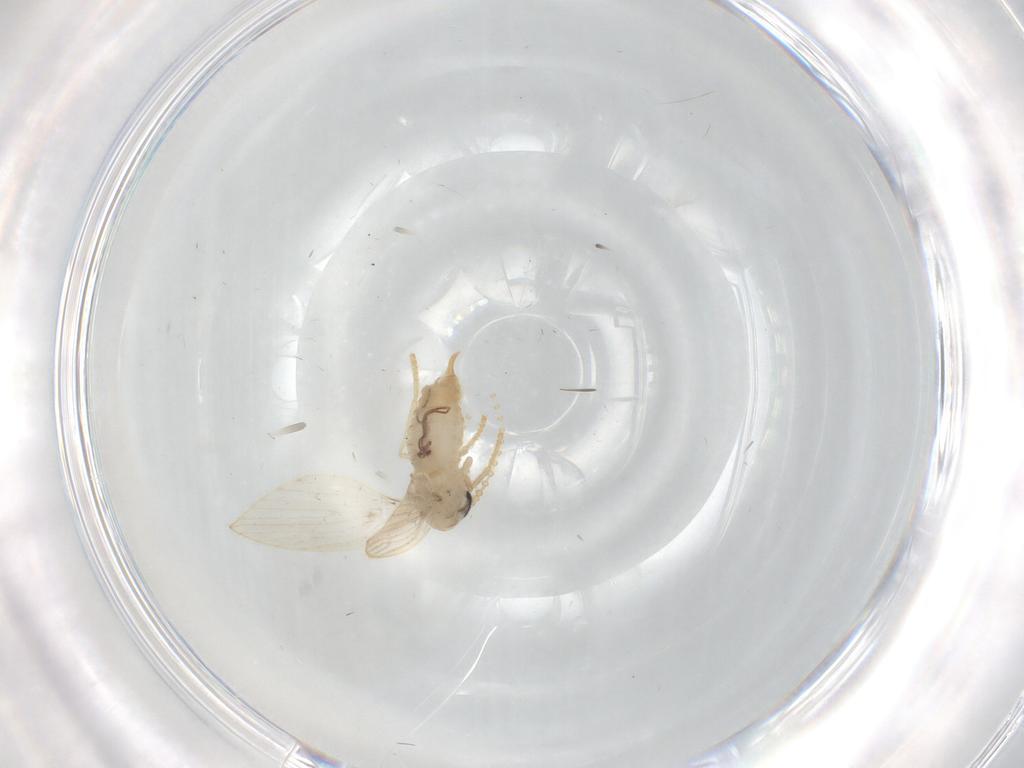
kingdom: Animalia
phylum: Arthropoda
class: Insecta
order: Diptera
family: Psychodidae
